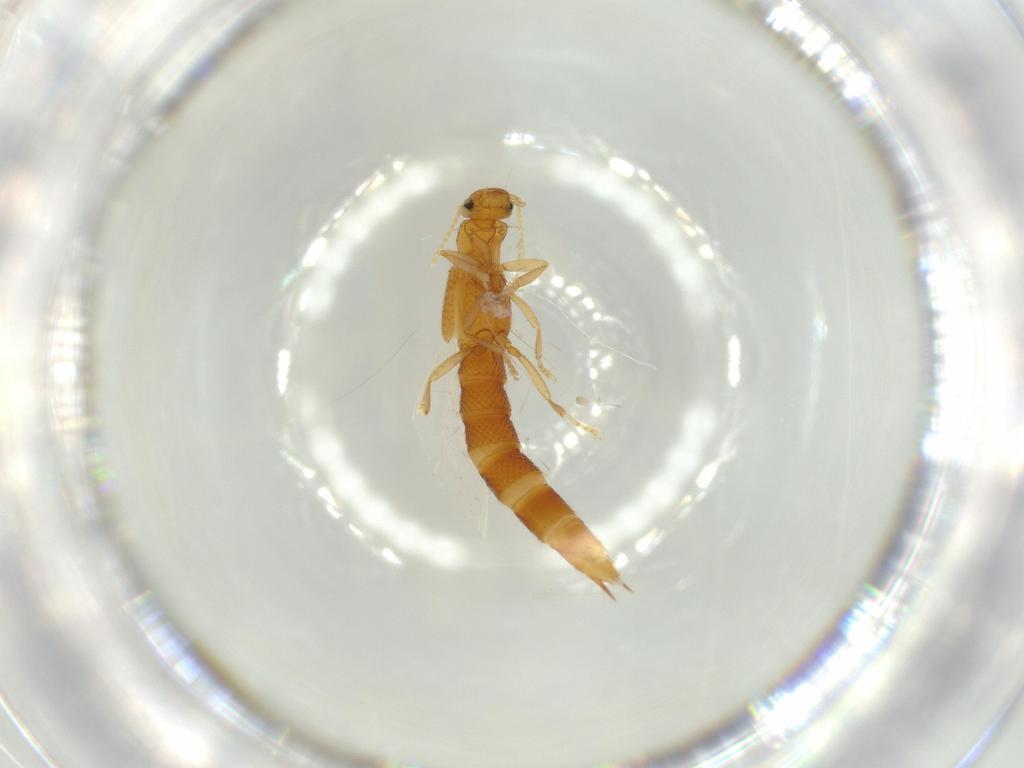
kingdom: Animalia
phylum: Arthropoda
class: Insecta
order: Coleoptera
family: Staphylinidae
